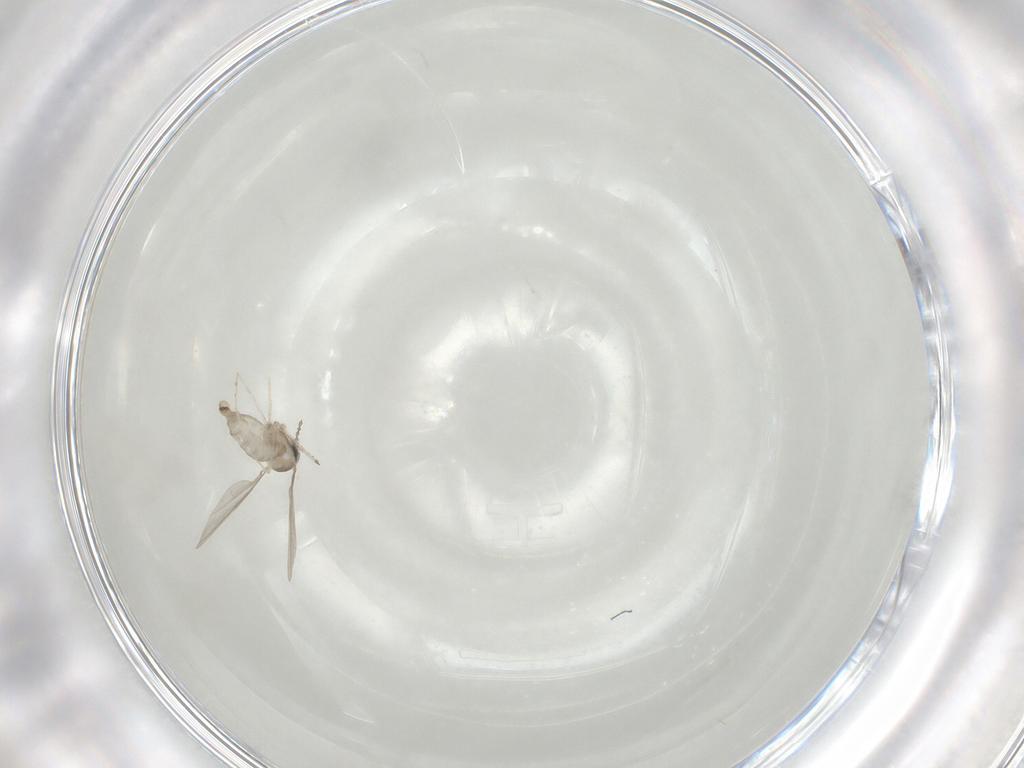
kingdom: Animalia
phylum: Arthropoda
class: Insecta
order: Diptera
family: Cecidomyiidae
